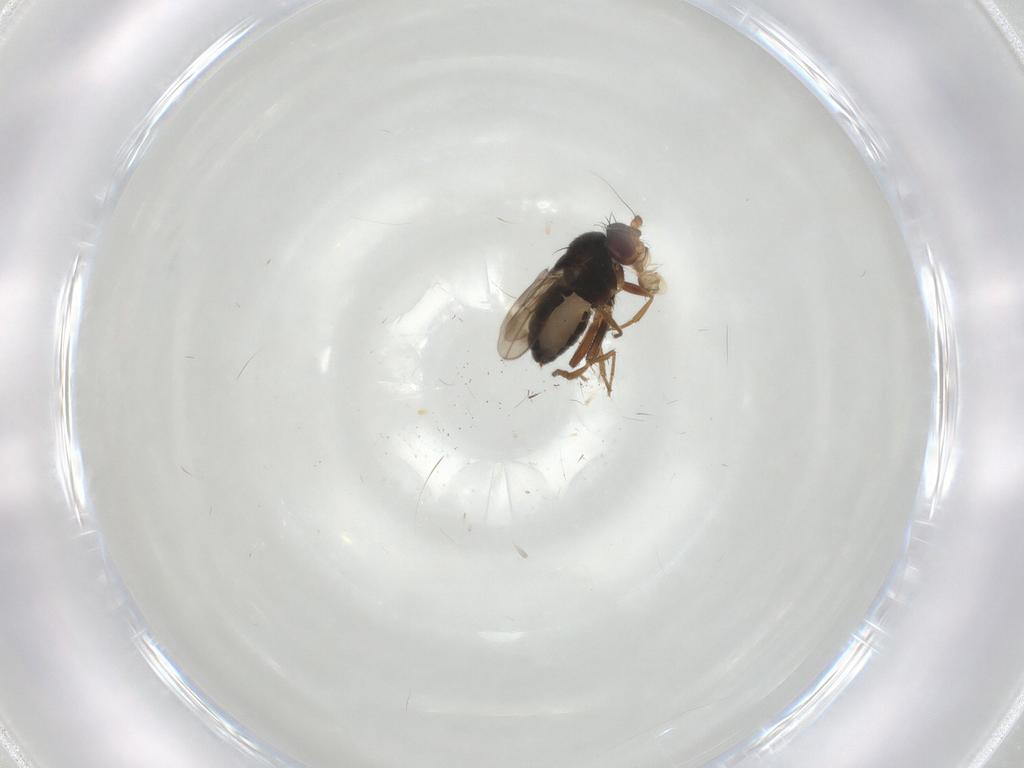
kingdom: Animalia
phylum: Arthropoda
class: Insecta
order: Diptera
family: Sphaeroceridae
